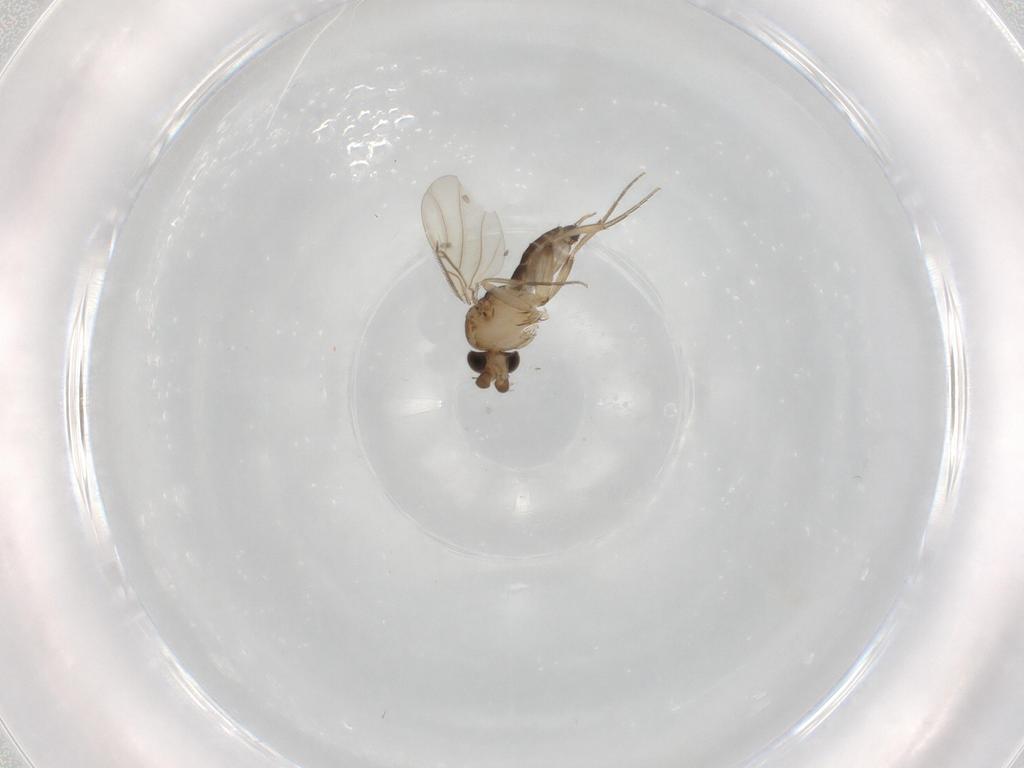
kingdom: Animalia
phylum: Arthropoda
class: Insecta
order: Diptera
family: Phoridae
